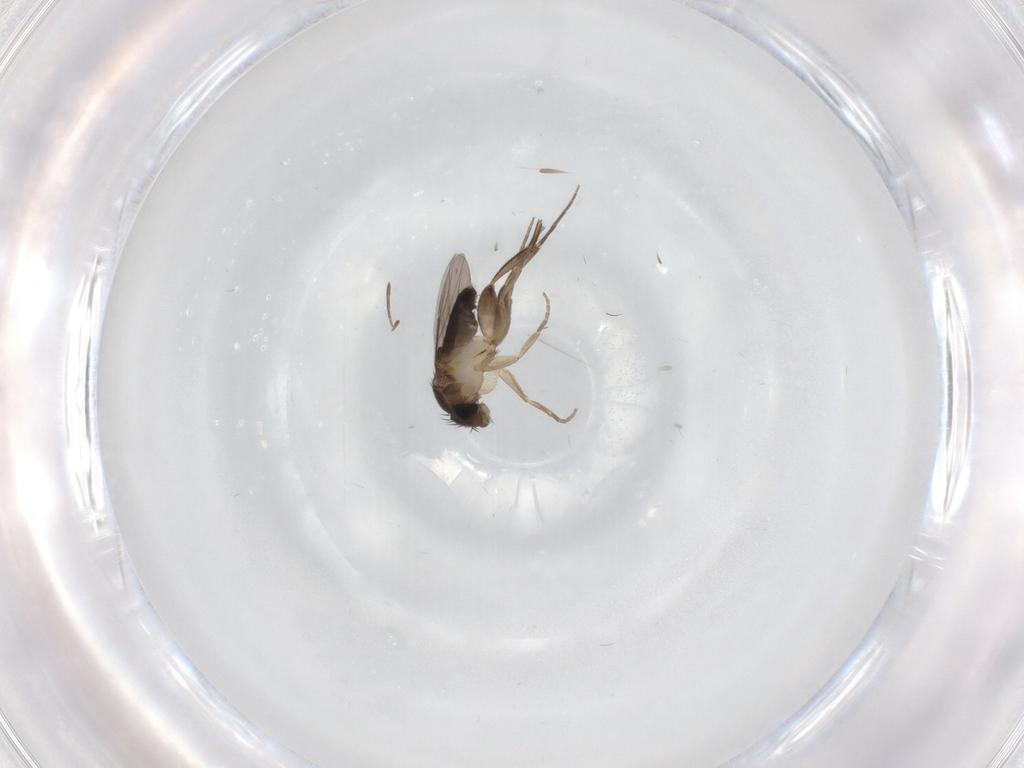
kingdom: Animalia
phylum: Arthropoda
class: Insecta
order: Diptera
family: Phoridae
